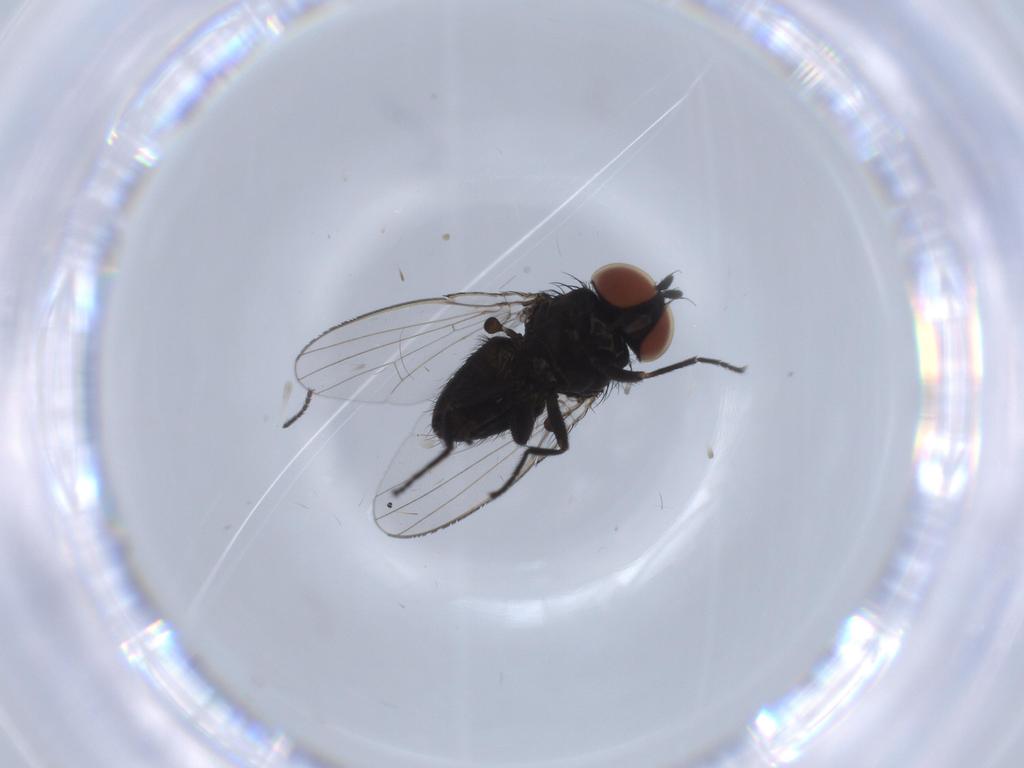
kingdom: Animalia
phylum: Arthropoda
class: Insecta
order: Diptera
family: Milichiidae
